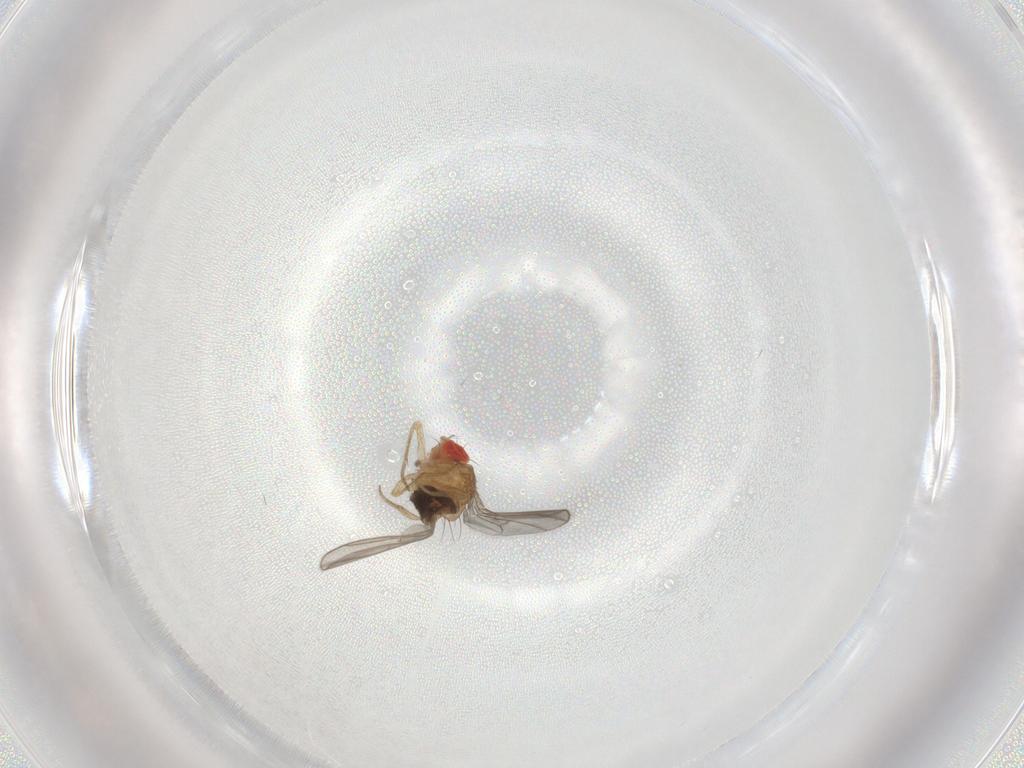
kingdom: Animalia
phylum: Arthropoda
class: Insecta
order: Diptera
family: Drosophilidae
